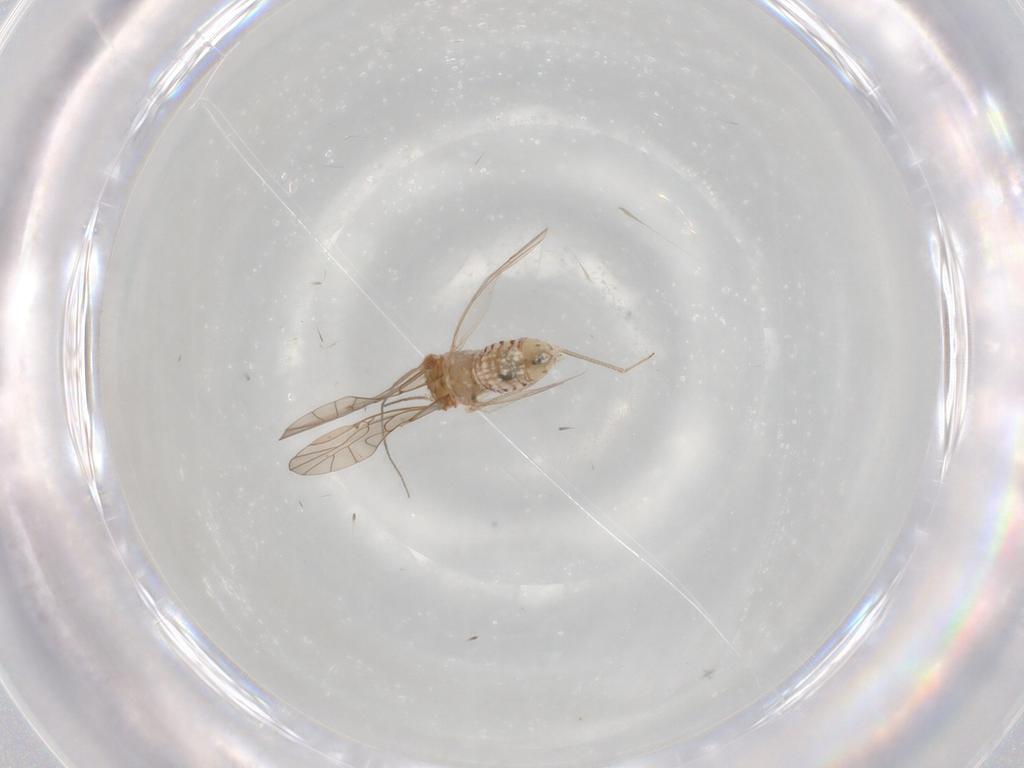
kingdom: Animalia
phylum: Arthropoda
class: Insecta
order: Psocodea
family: Lachesillidae
